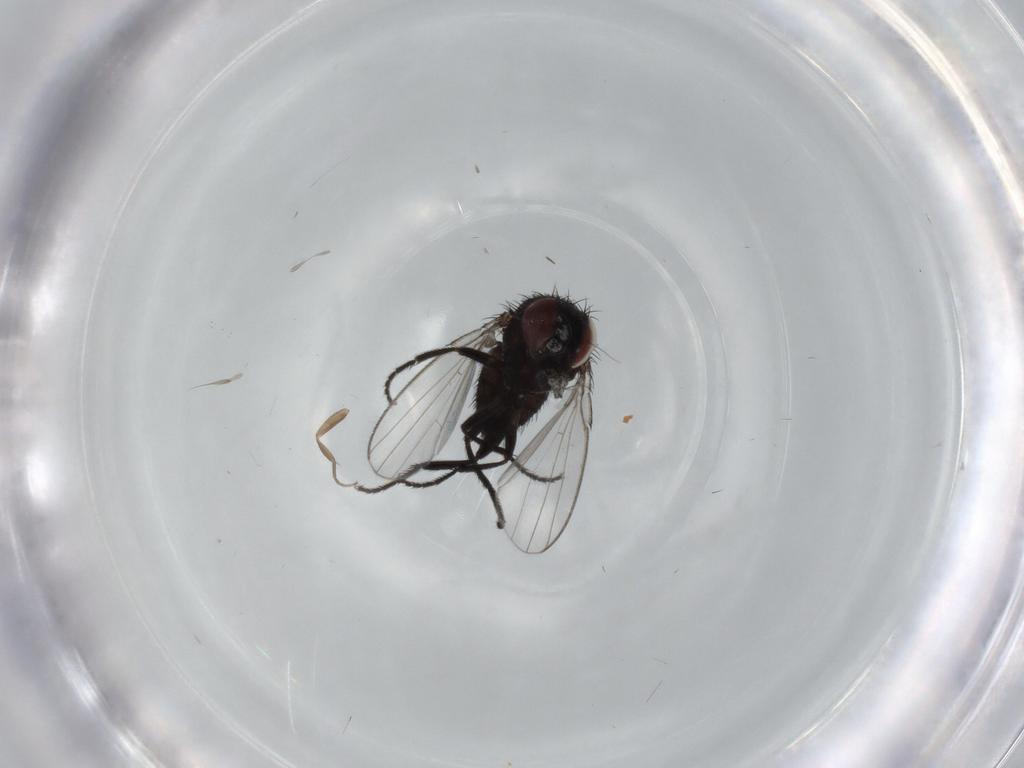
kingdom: Animalia
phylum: Arthropoda
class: Insecta
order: Diptera
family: Milichiidae
